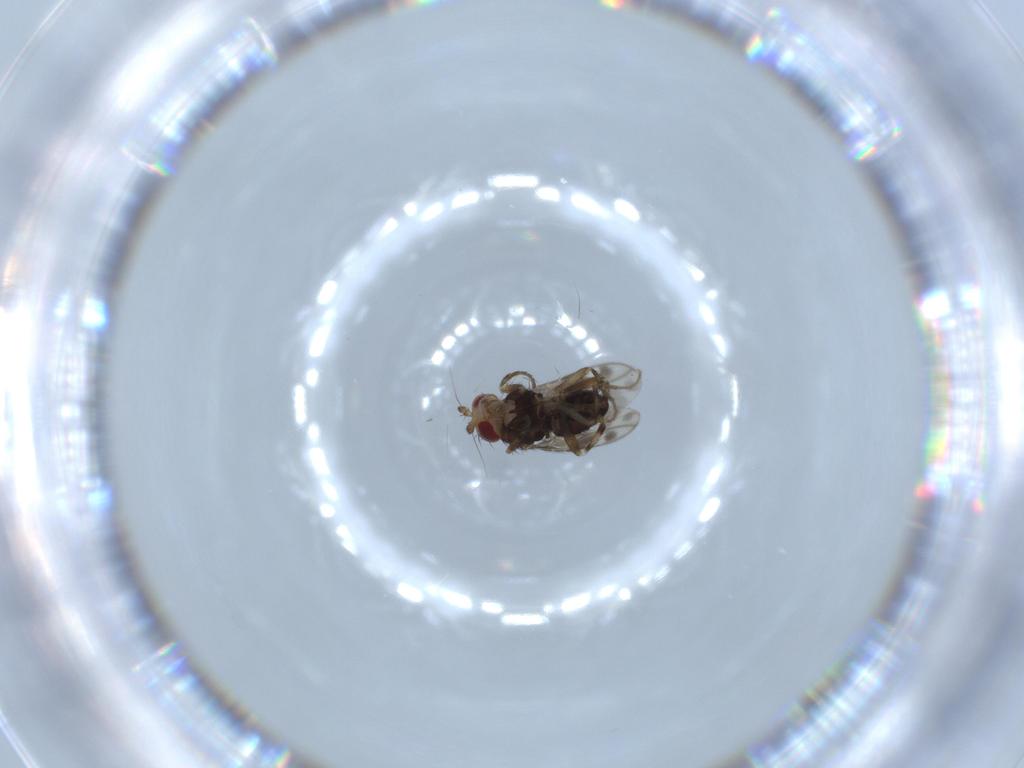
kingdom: Animalia
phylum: Arthropoda
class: Insecta
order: Diptera
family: Sphaeroceridae
